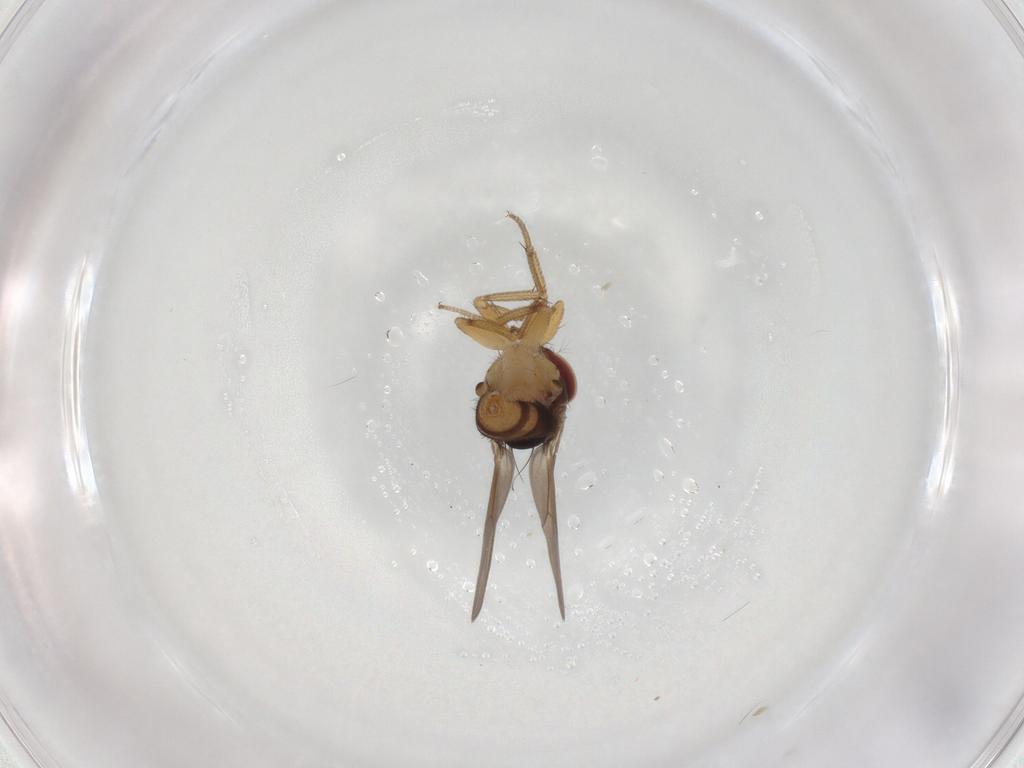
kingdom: Animalia
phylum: Arthropoda
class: Insecta
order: Diptera
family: Drosophilidae
